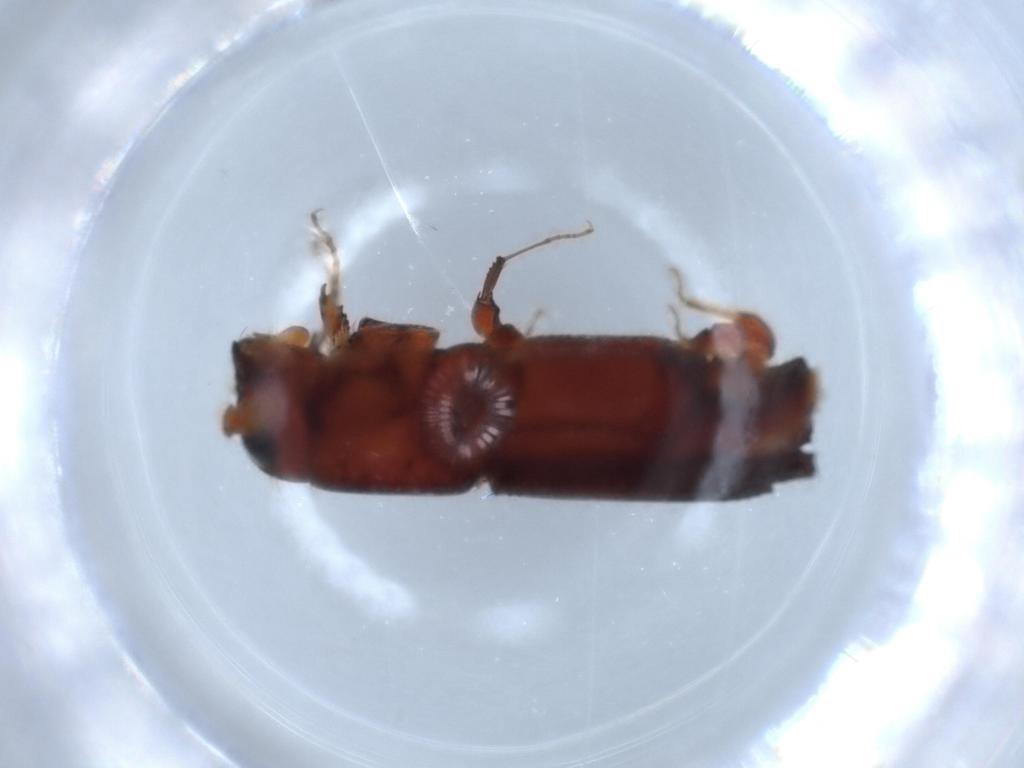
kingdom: Animalia
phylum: Arthropoda
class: Insecta
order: Coleoptera
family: Curculionidae
